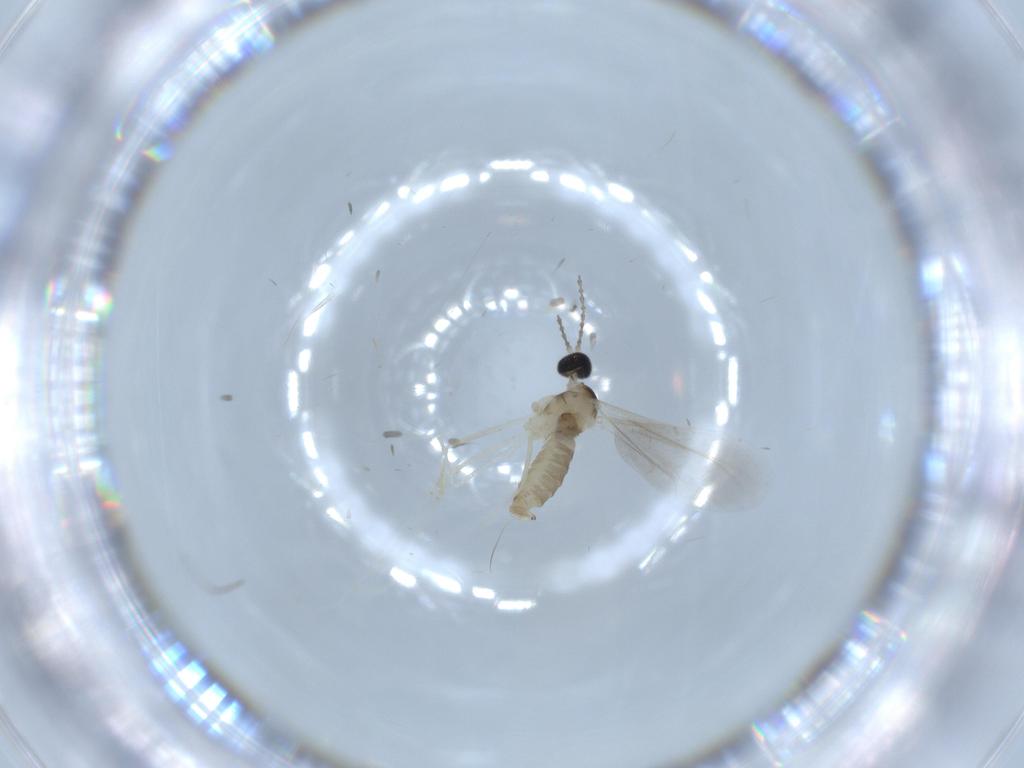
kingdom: Animalia
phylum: Arthropoda
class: Insecta
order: Diptera
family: Cecidomyiidae
